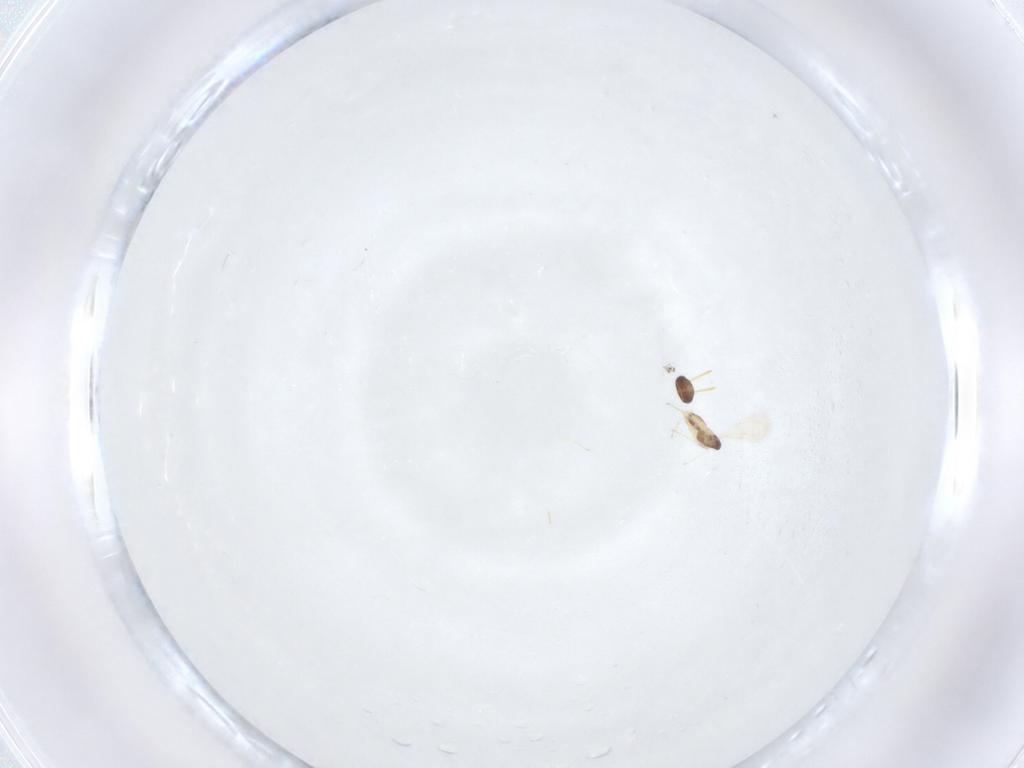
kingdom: Animalia
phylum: Arthropoda
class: Insecta
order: Hymenoptera
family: Aphelinidae
